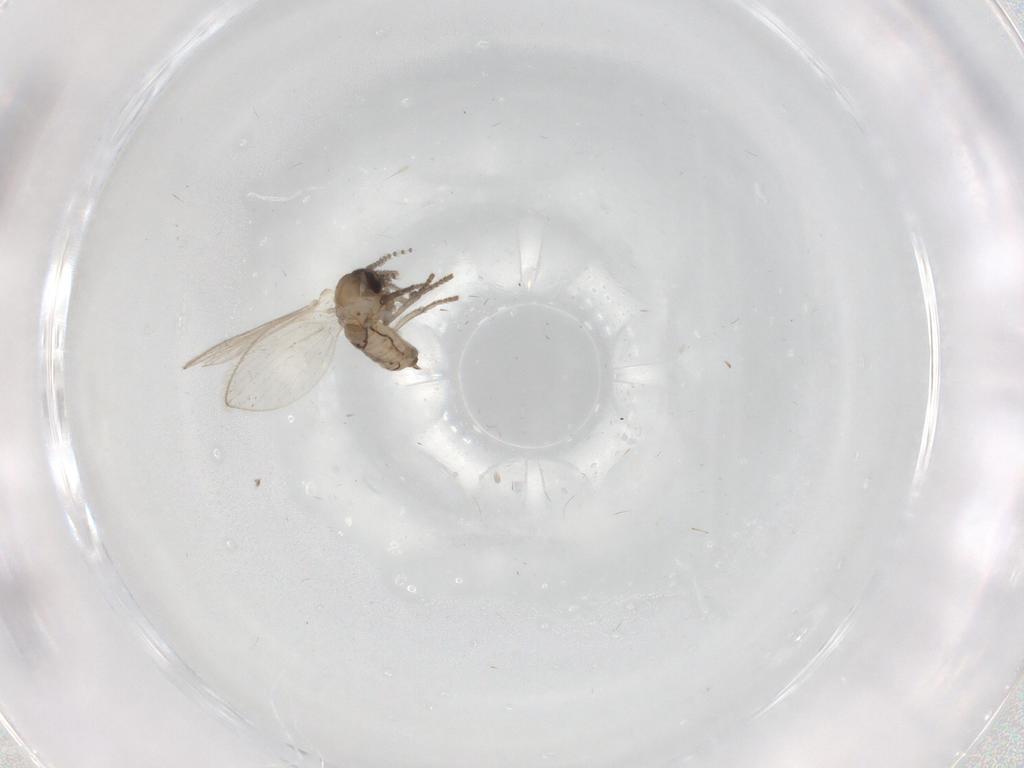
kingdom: Animalia
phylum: Arthropoda
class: Insecta
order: Diptera
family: Psychodidae
